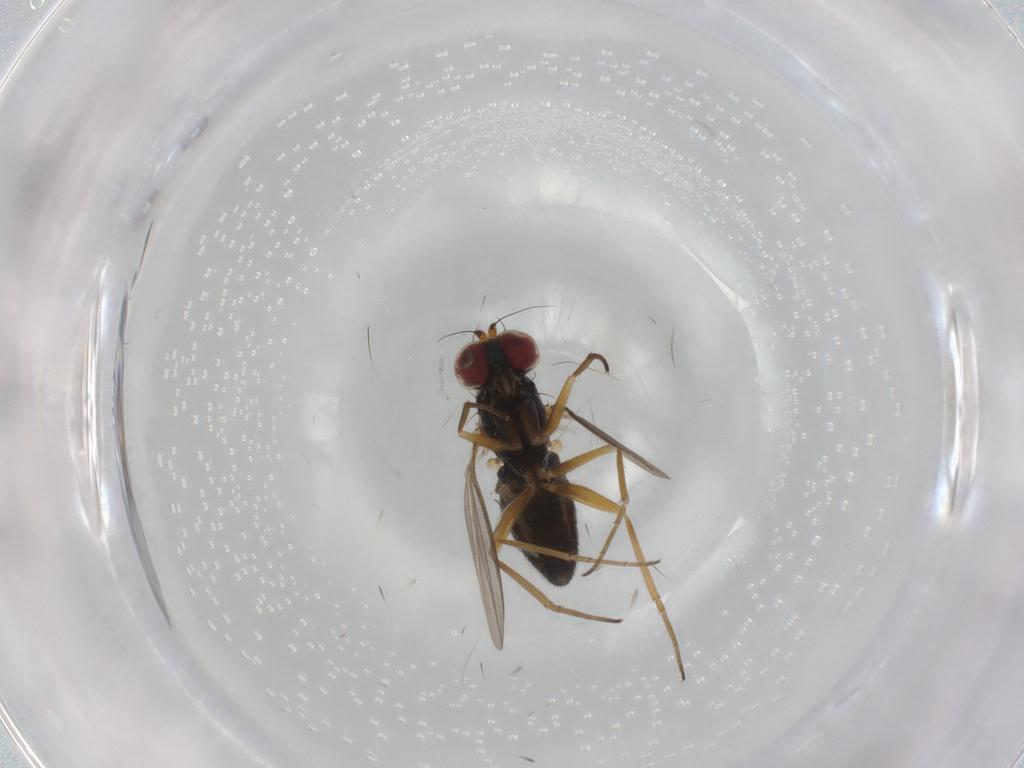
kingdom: Animalia
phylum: Arthropoda
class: Insecta
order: Diptera
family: Dolichopodidae
